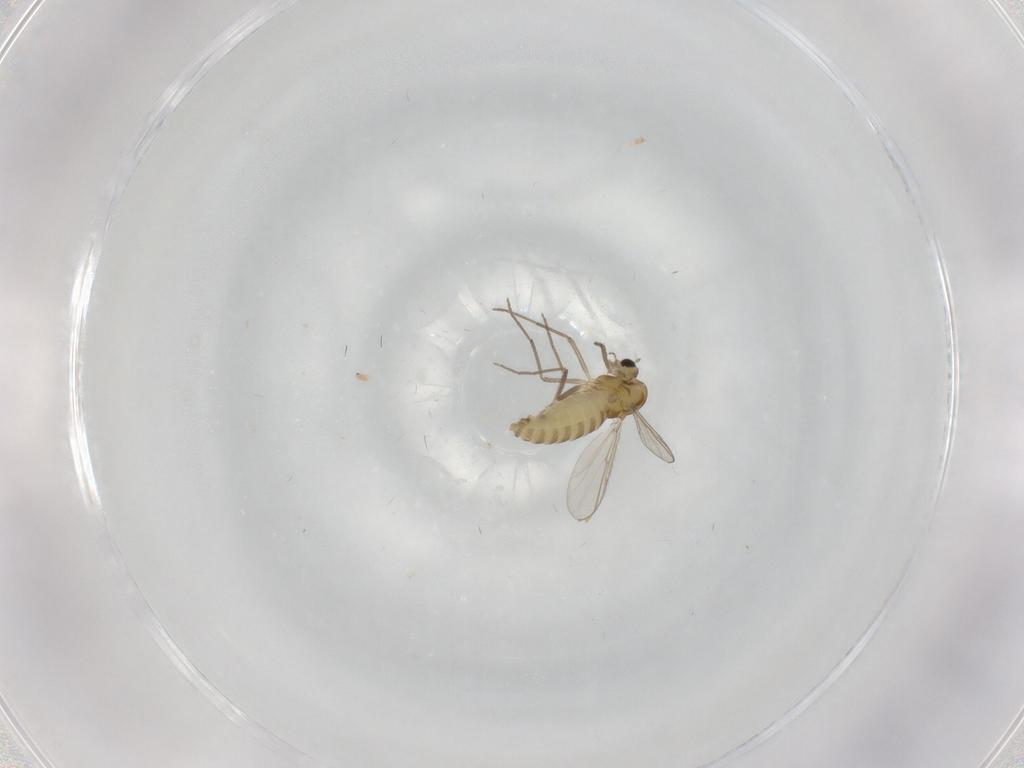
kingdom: Animalia
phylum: Arthropoda
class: Insecta
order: Diptera
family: Chironomidae
